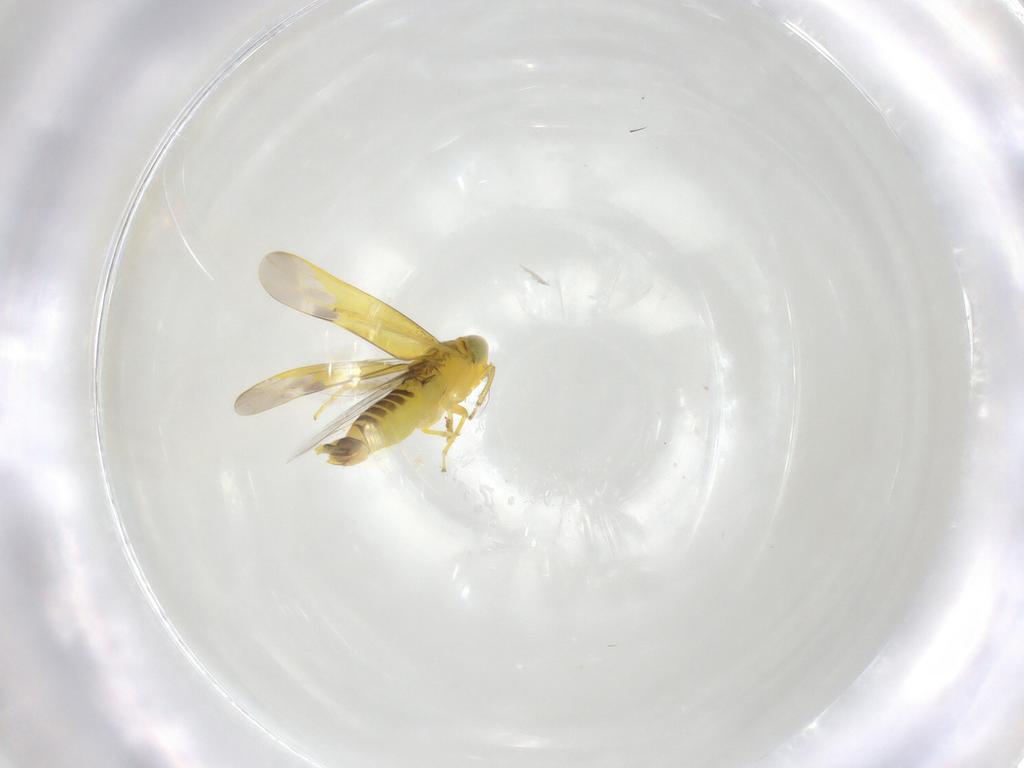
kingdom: Animalia
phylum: Arthropoda
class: Insecta
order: Hemiptera
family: Cicadellidae
